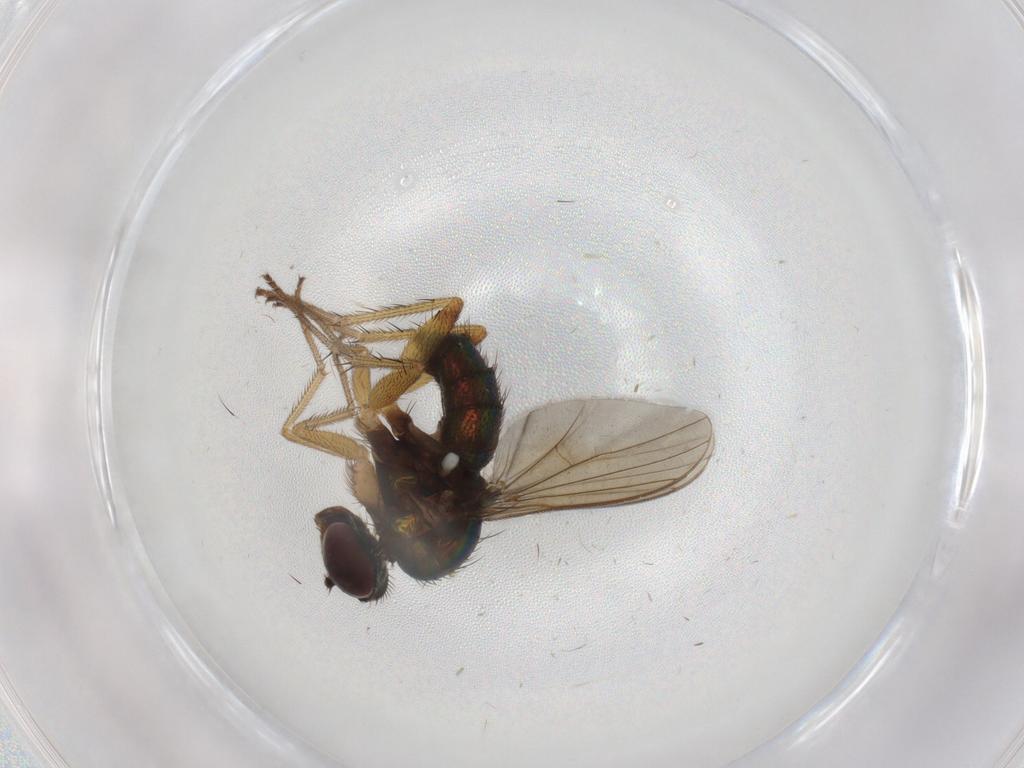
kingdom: Animalia
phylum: Arthropoda
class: Insecta
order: Diptera
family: Dolichopodidae
